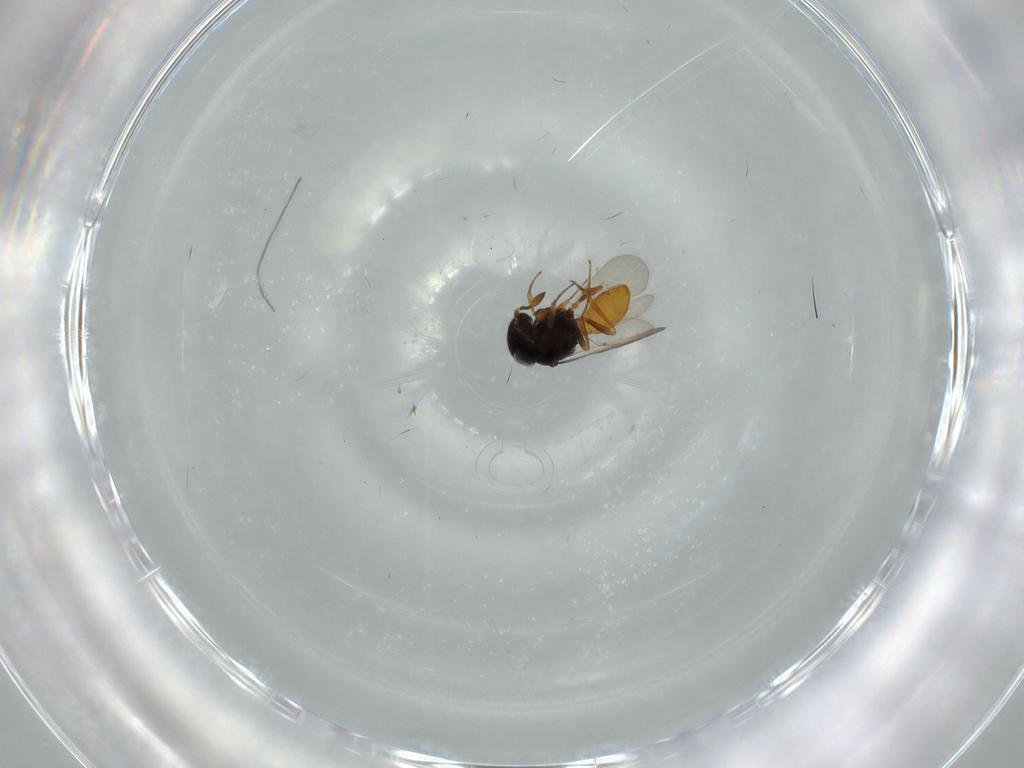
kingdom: Animalia
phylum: Arthropoda
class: Insecta
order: Hymenoptera
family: Scelionidae
